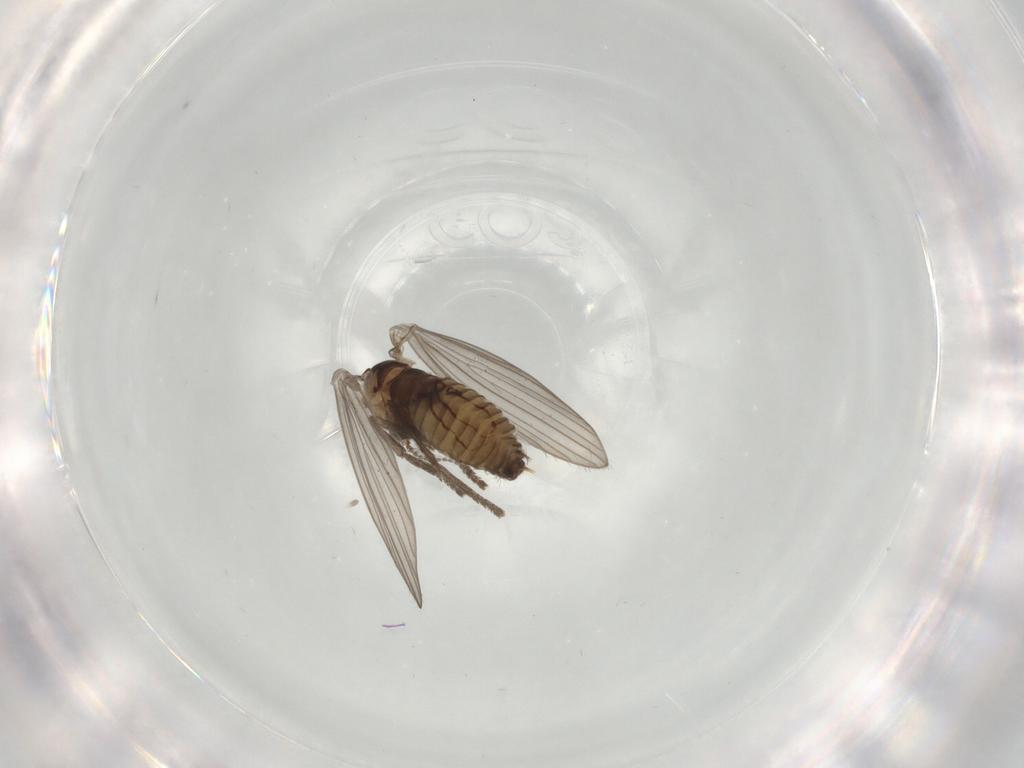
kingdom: Animalia
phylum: Arthropoda
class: Insecta
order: Diptera
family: Psychodidae
